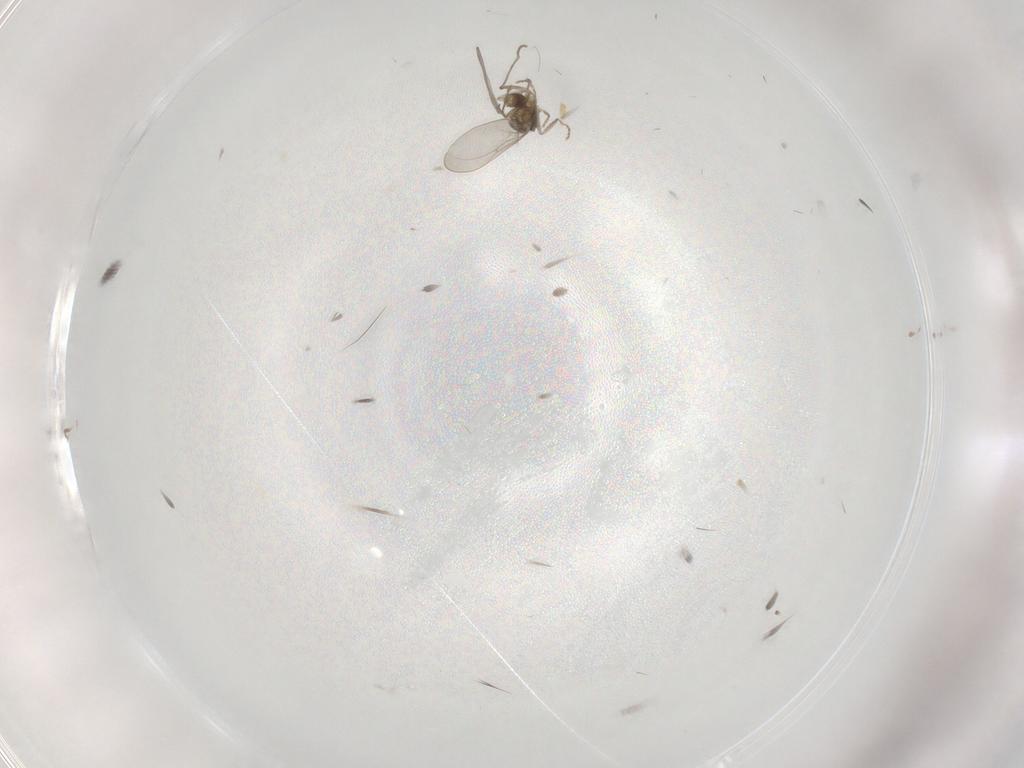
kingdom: Animalia
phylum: Arthropoda
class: Insecta
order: Diptera
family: Cecidomyiidae
